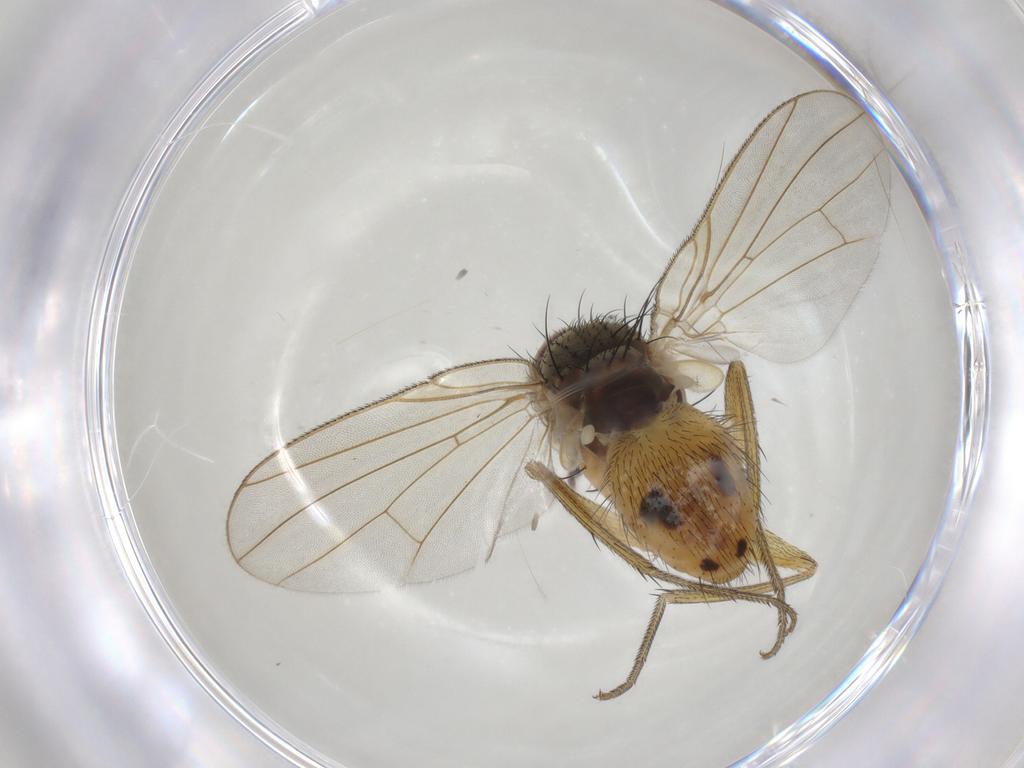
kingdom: Animalia
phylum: Arthropoda
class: Insecta
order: Diptera
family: Muscidae
